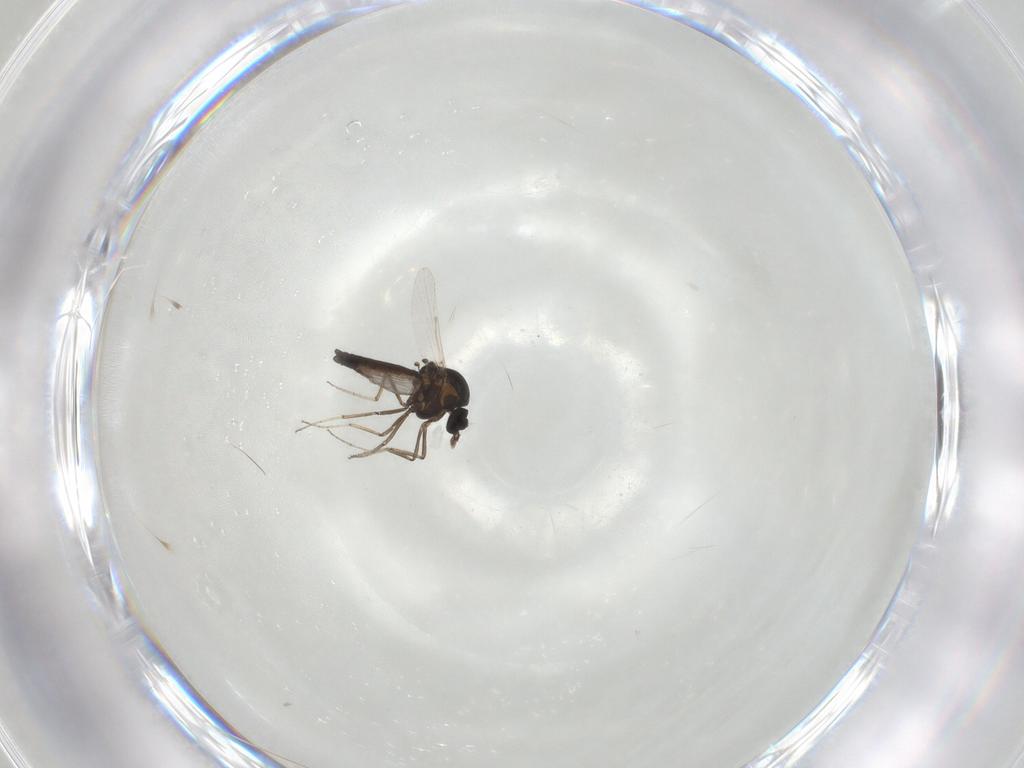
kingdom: Animalia
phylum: Arthropoda
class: Insecta
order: Diptera
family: Ceratopogonidae
